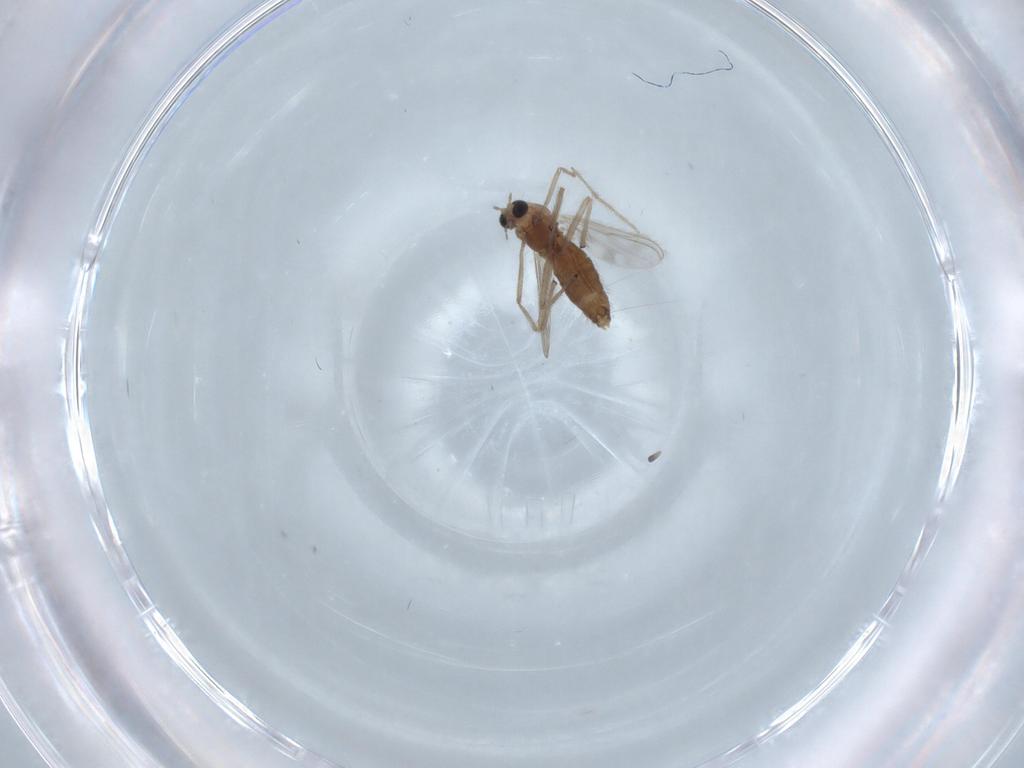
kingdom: Animalia
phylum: Arthropoda
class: Insecta
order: Diptera
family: Chironomidae
